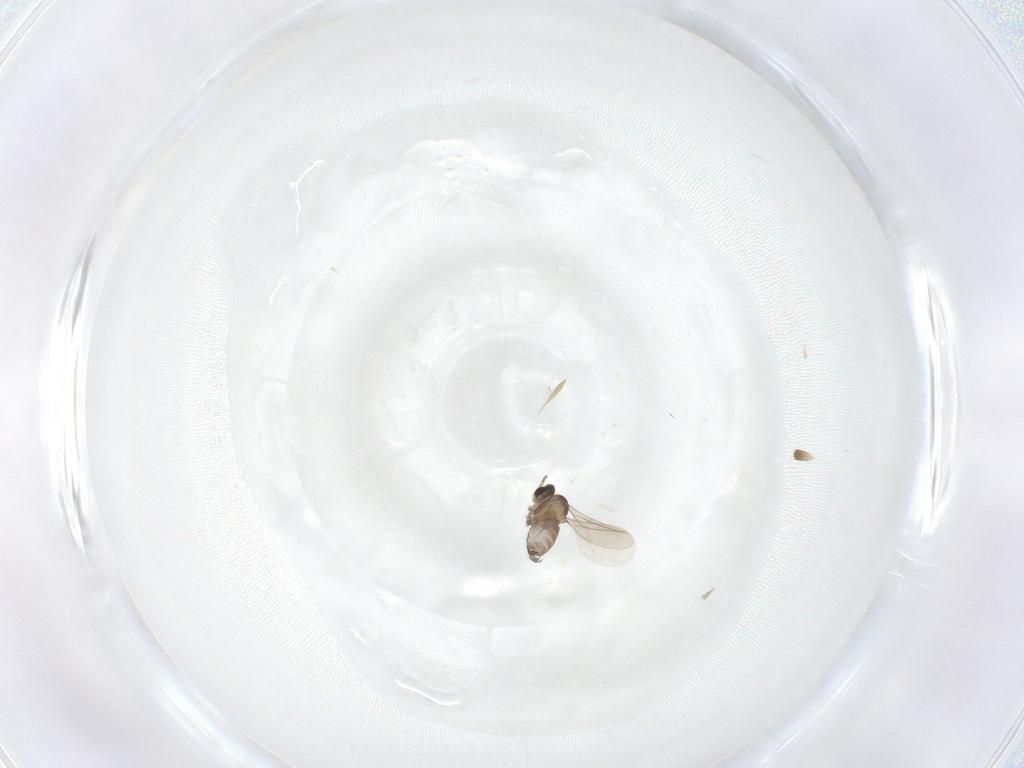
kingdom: Animalia
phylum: Arthropoda
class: Insecta
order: Diptera
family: Cecidomyiidae
